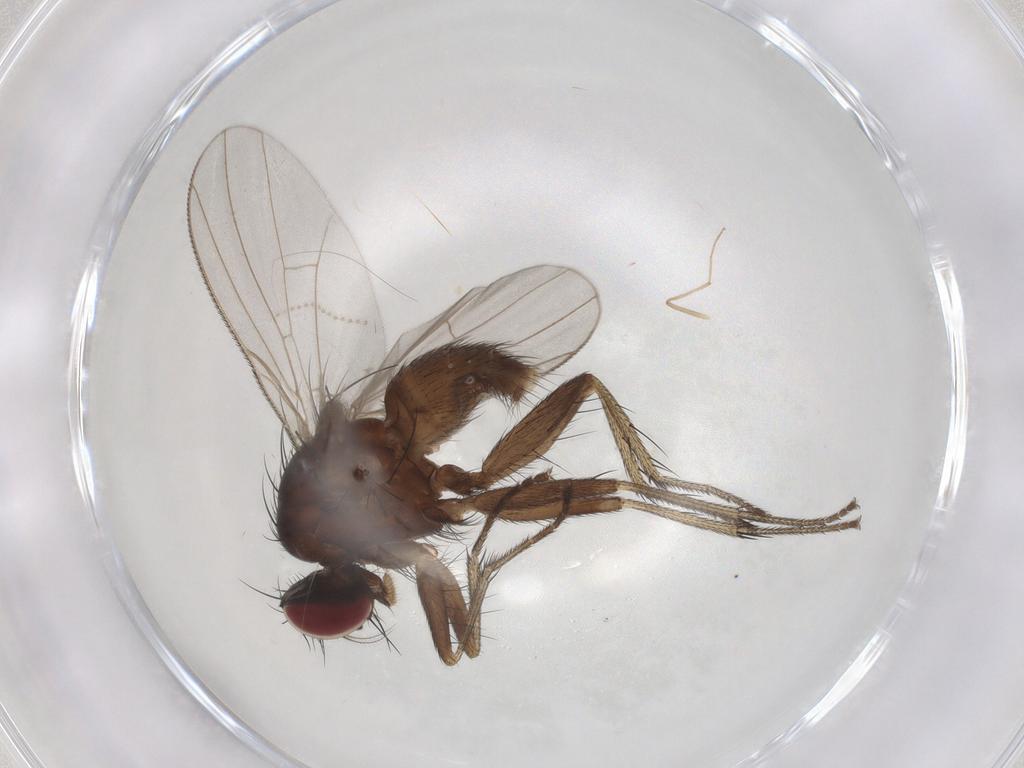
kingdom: Animalia
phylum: Arthropoda
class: Insecta
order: Diptera
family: Muscidae
